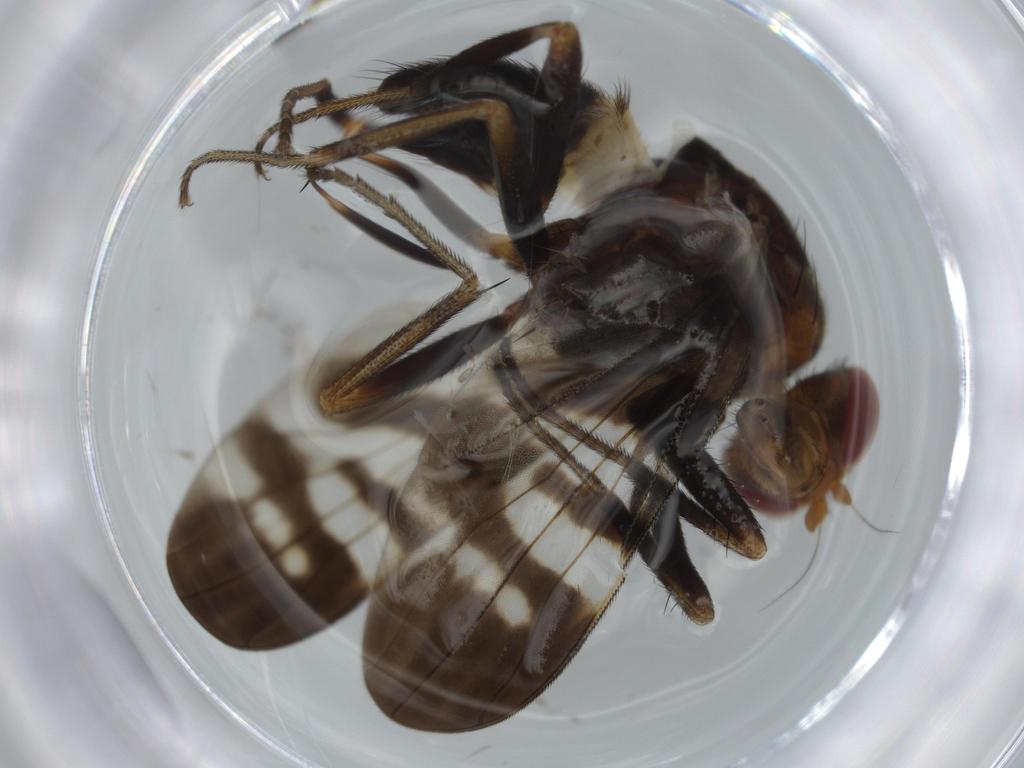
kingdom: Animalia
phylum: Arthropoda
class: Insecta
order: Diptera
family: Ulidiidae
